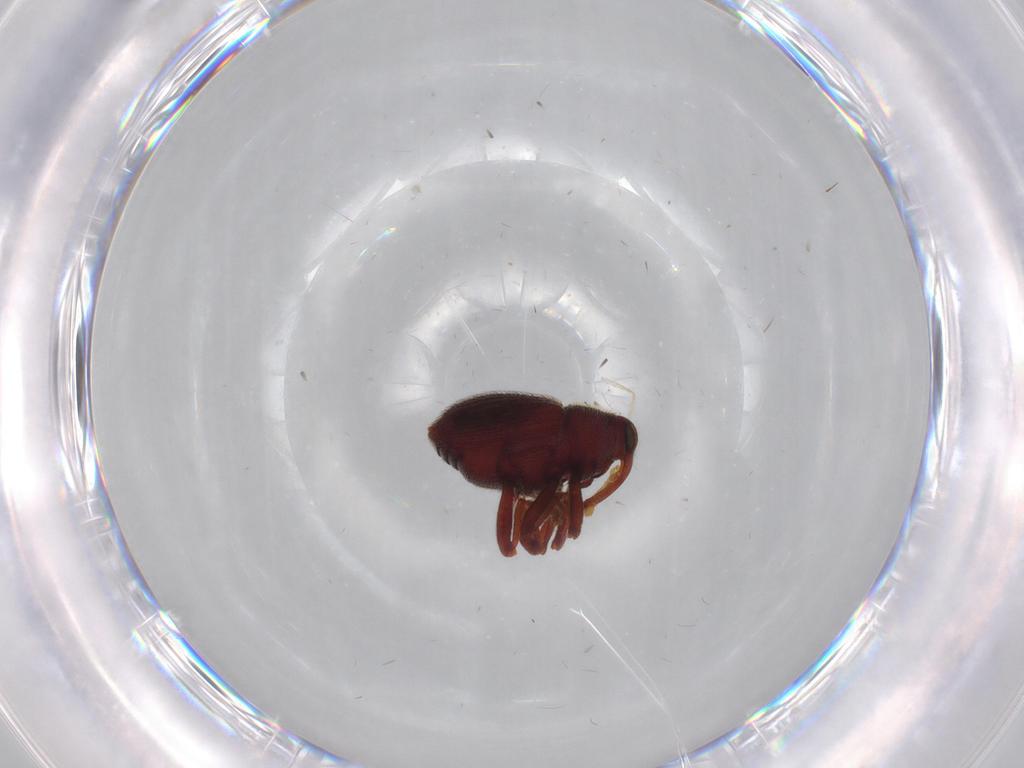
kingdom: Animalia
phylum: Arthropoda
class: Insecta
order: Coleoptera
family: Curculionidae
